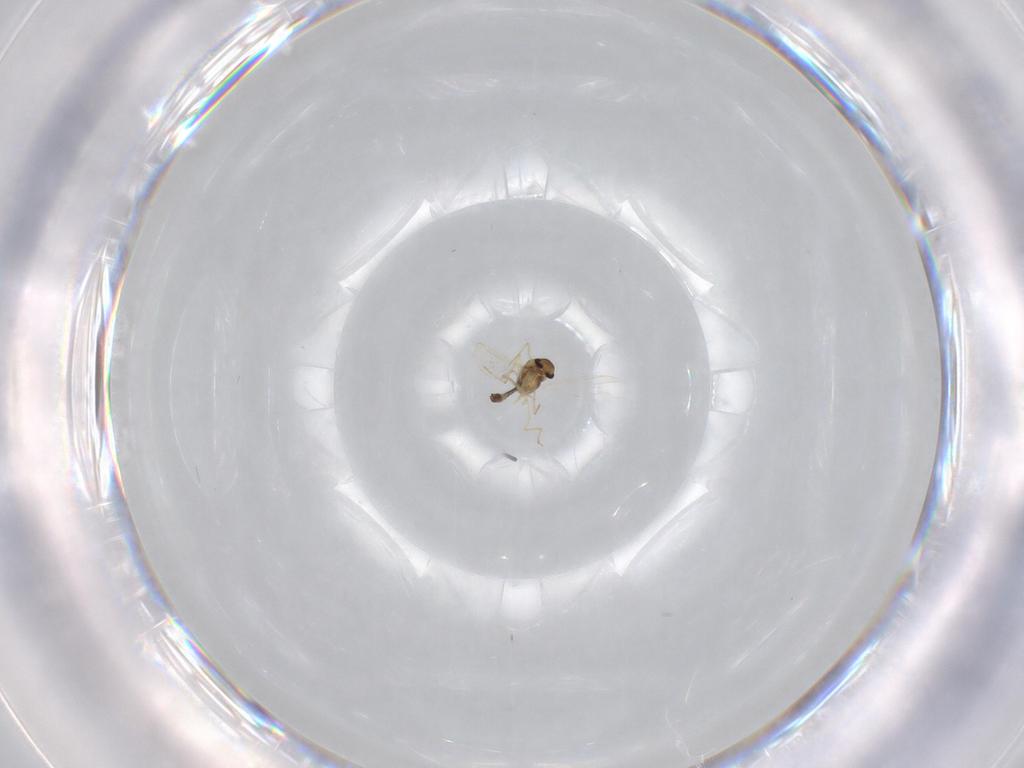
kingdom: Animalia
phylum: Arthropoda
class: Insecta
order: Diptera
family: Chironomidae
